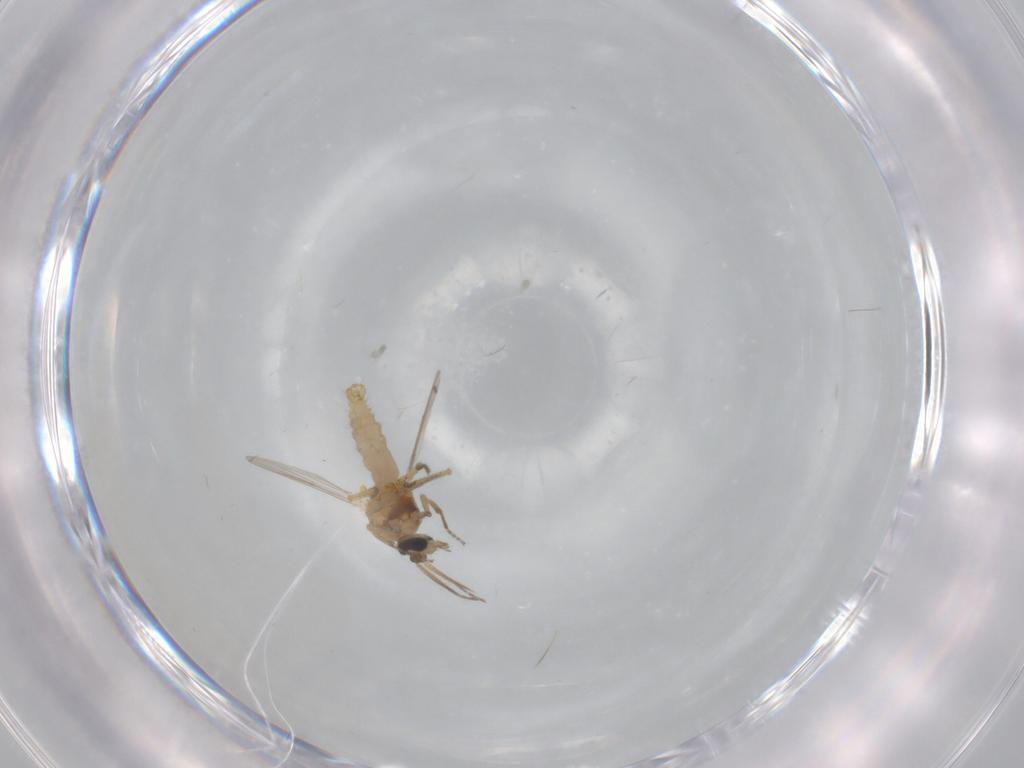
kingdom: Animalia
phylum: Arthropoda
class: Insecta
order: Diptera
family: Ceratopogonidae
